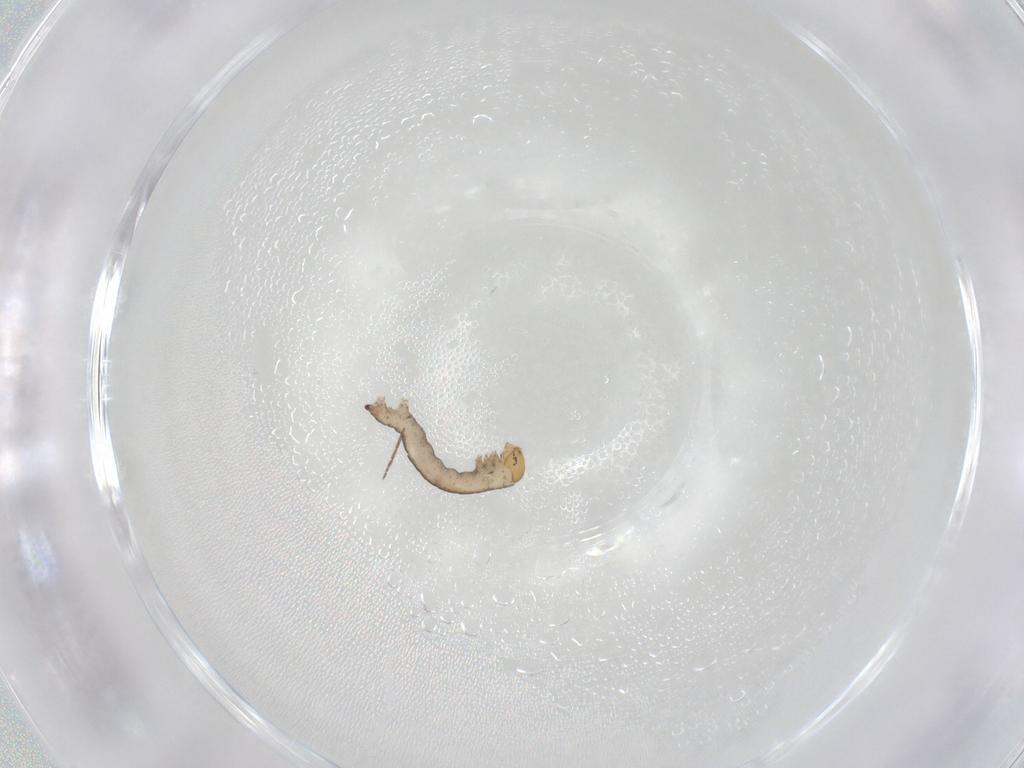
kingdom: Animalia
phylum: Arthropoda
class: Insecta
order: Diptera
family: Chironomidae
